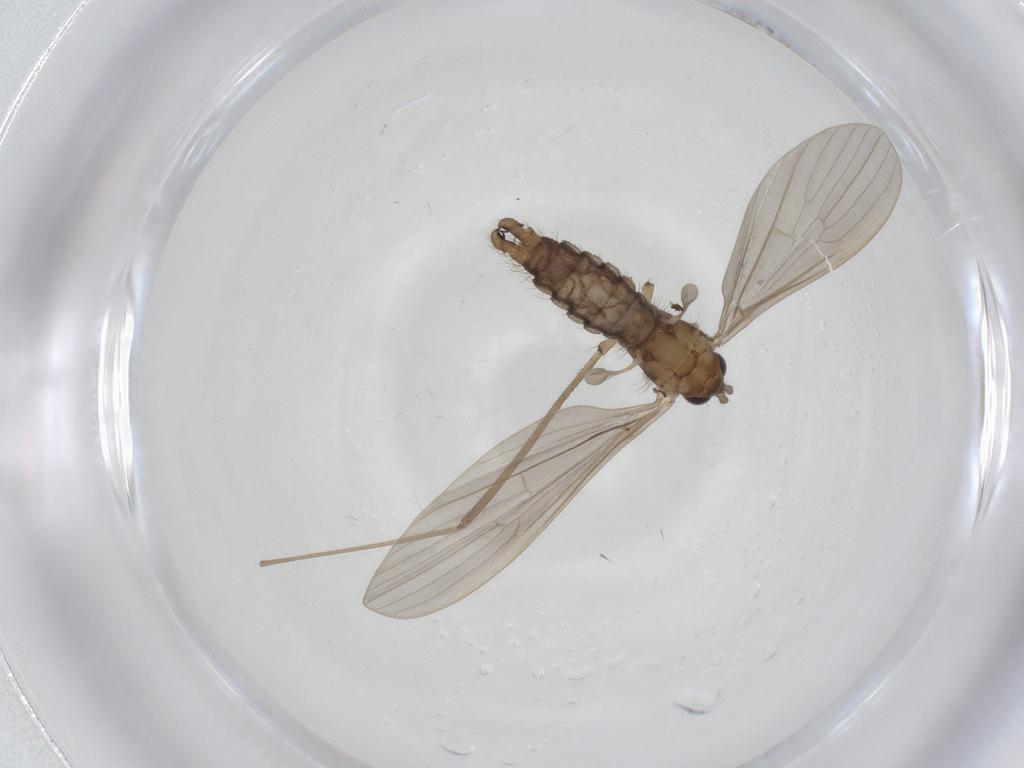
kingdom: Animalia
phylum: Arthropoda
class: Insecta
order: Diptera
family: Limoniidae
